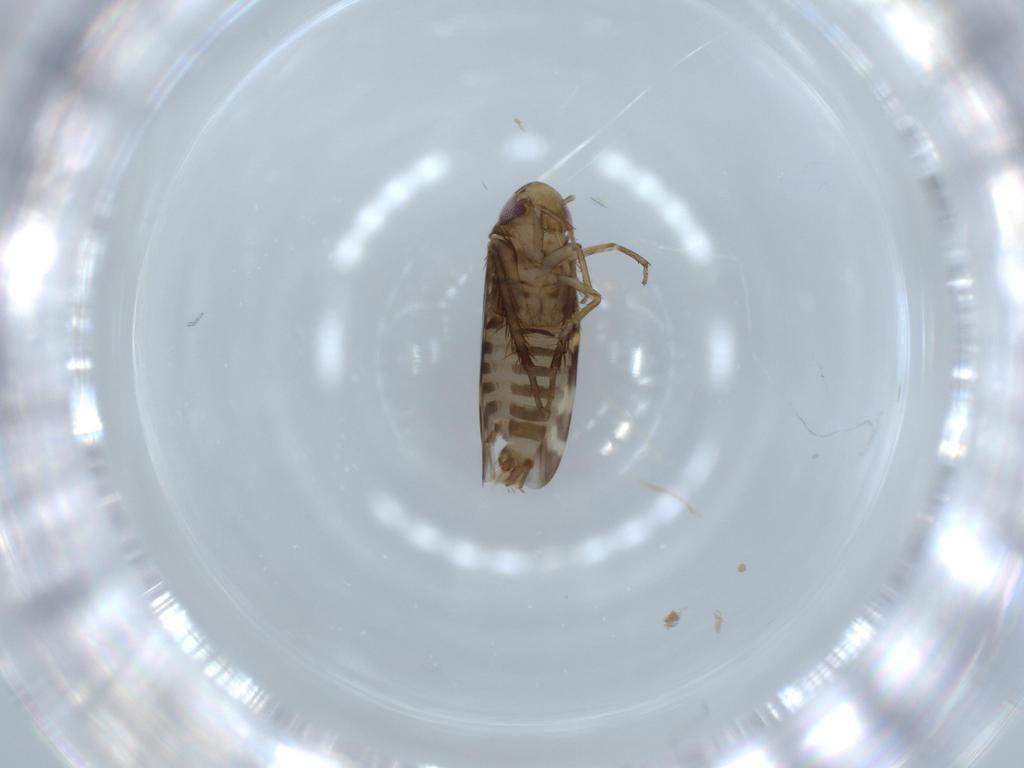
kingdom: Animalia
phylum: Arthropoda
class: Insecta
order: Hemiptera
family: Cicadellidae
